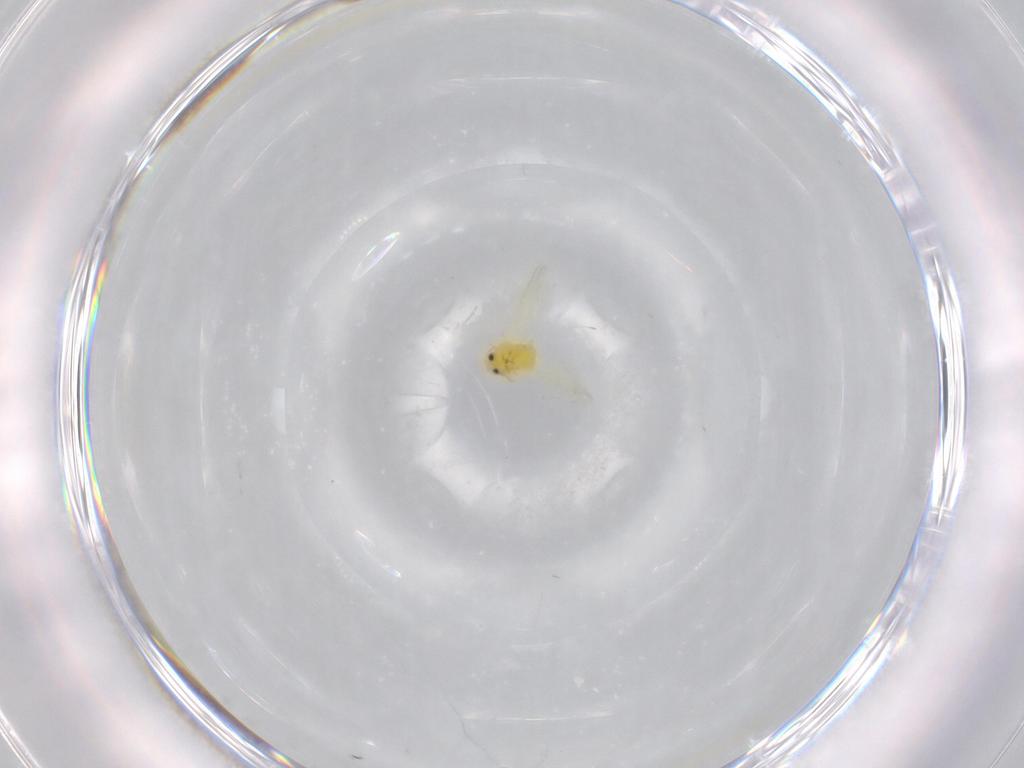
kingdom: Animalia
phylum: Arthropoda
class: Insecta
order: Hemiptera
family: Aleyrodidae
